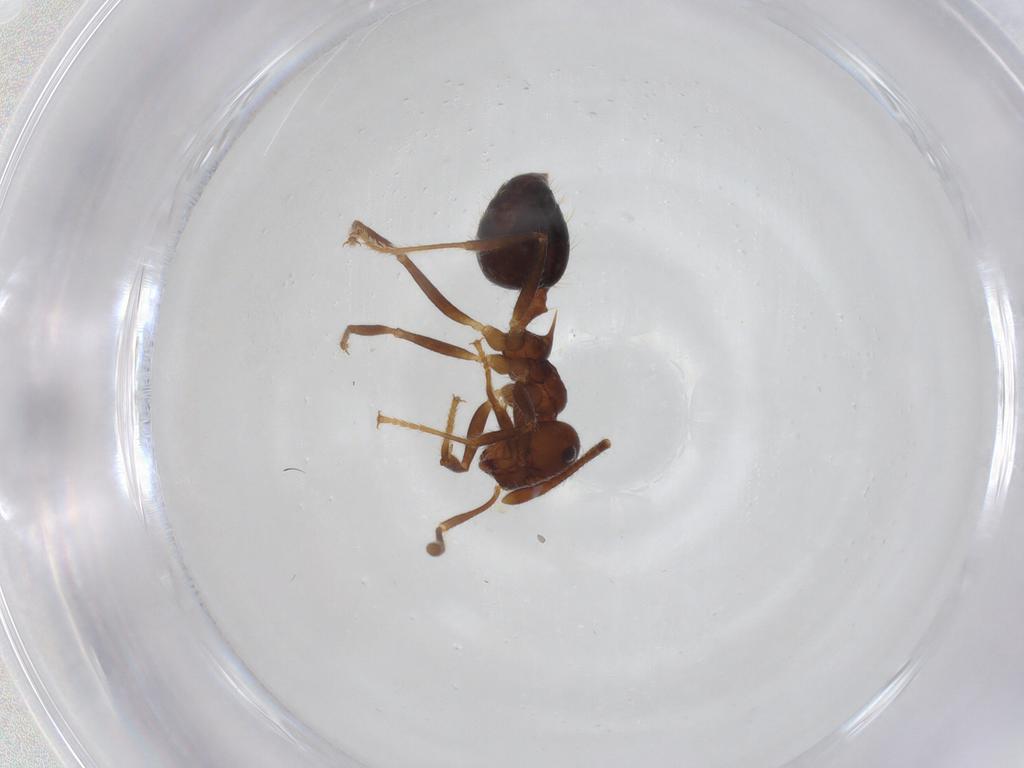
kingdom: Animalia
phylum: Arthropoda
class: Insecta
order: Hymenoptera
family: Formicidae
